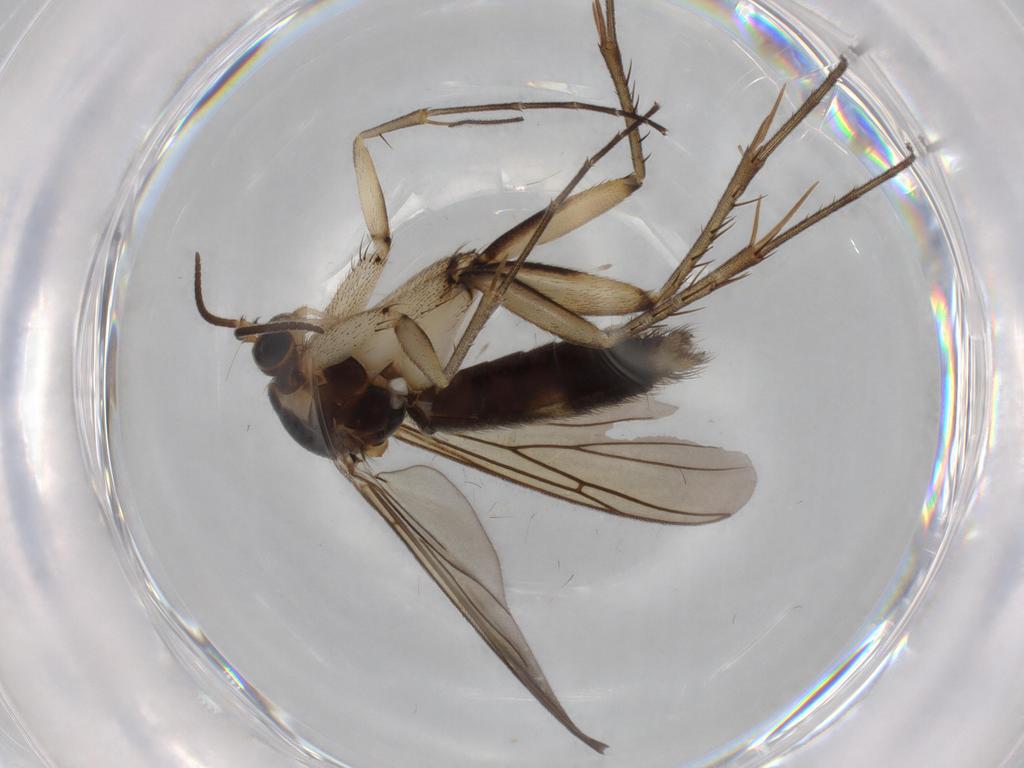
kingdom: Animalia
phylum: Arthropoda
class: Insecta
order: Diptera
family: Cecidomyiidae
